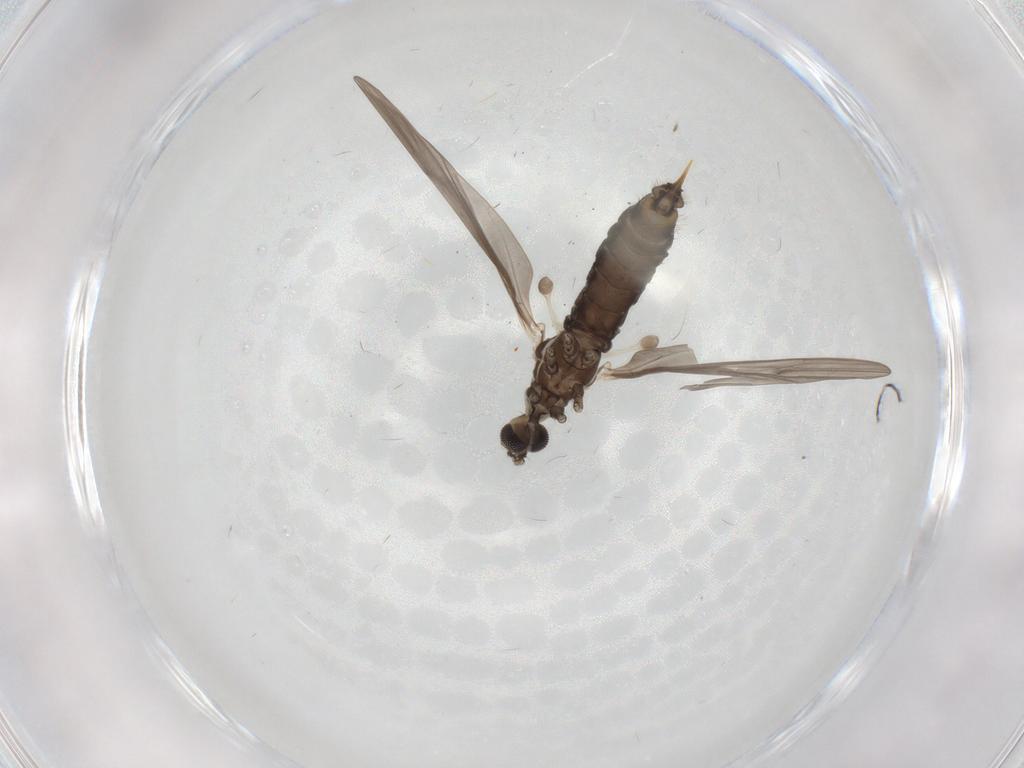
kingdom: Animalia
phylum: Arthropoda
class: Insecta
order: Diptera
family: Limoniidae
